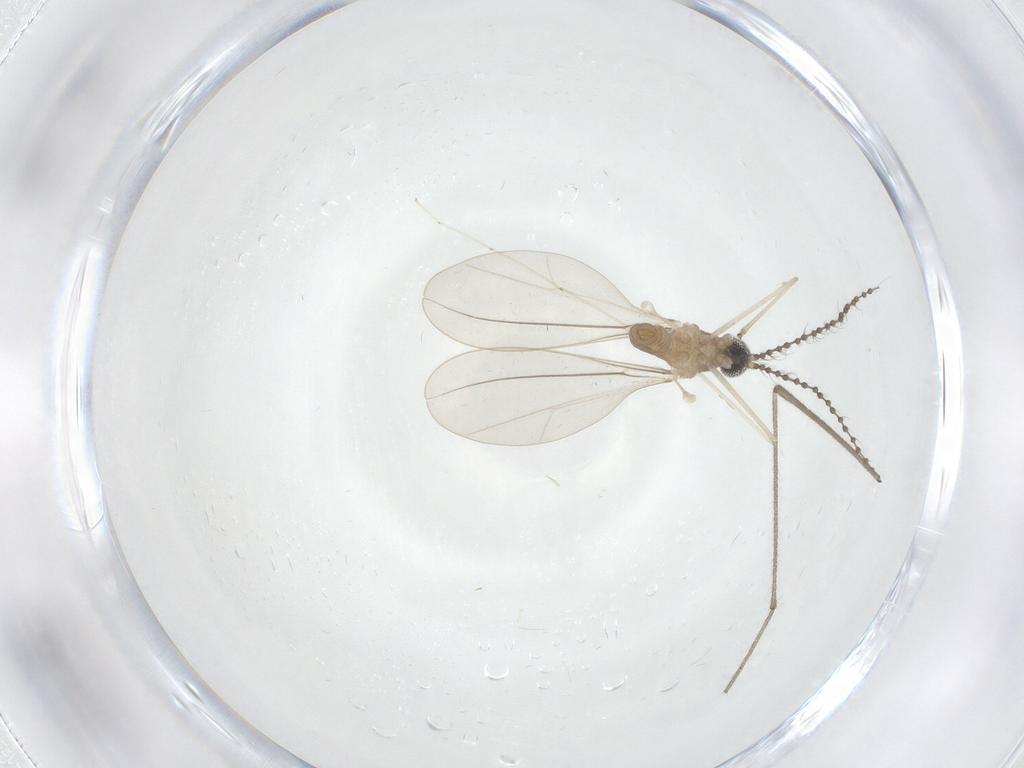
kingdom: Animalia
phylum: Arthropoda
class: Insecta
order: Diptera
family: Cecidomyiidae
